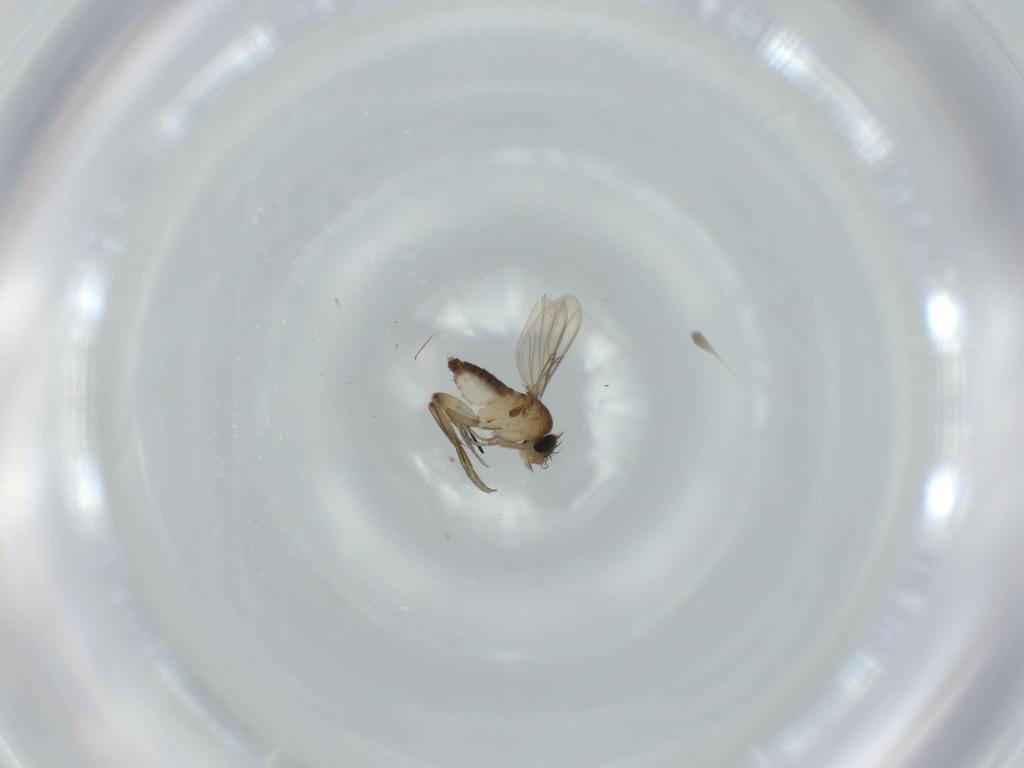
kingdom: Animalia
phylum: Arthropoda
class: Insecta
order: Diptera
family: Phoridae
